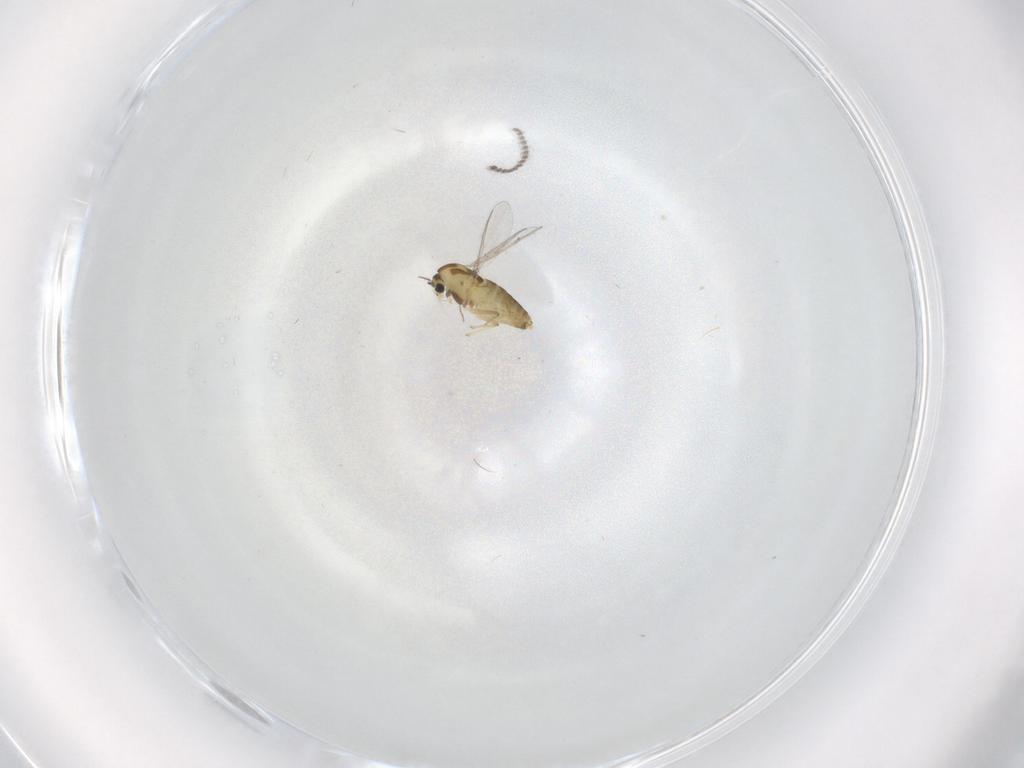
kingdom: Animalia
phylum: Arthropoda
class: Insecta
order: Diptera
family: Chironomidae
